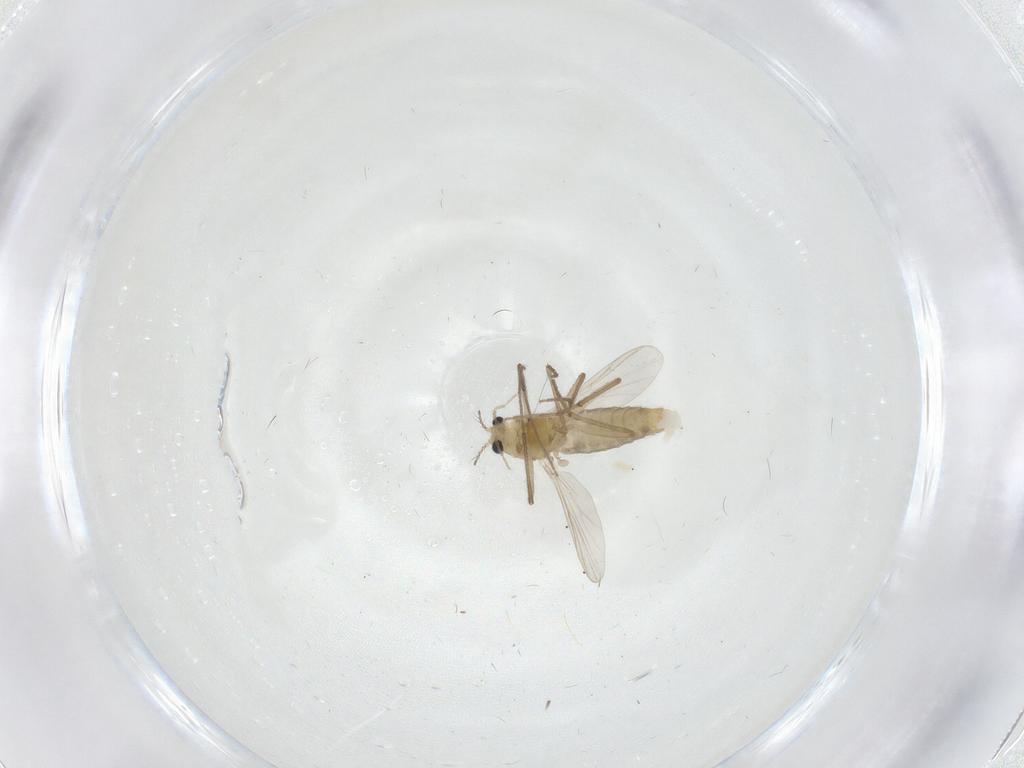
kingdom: Animalia
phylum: Arthropoda
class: Insecta
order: Diptera
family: Chironomidae
